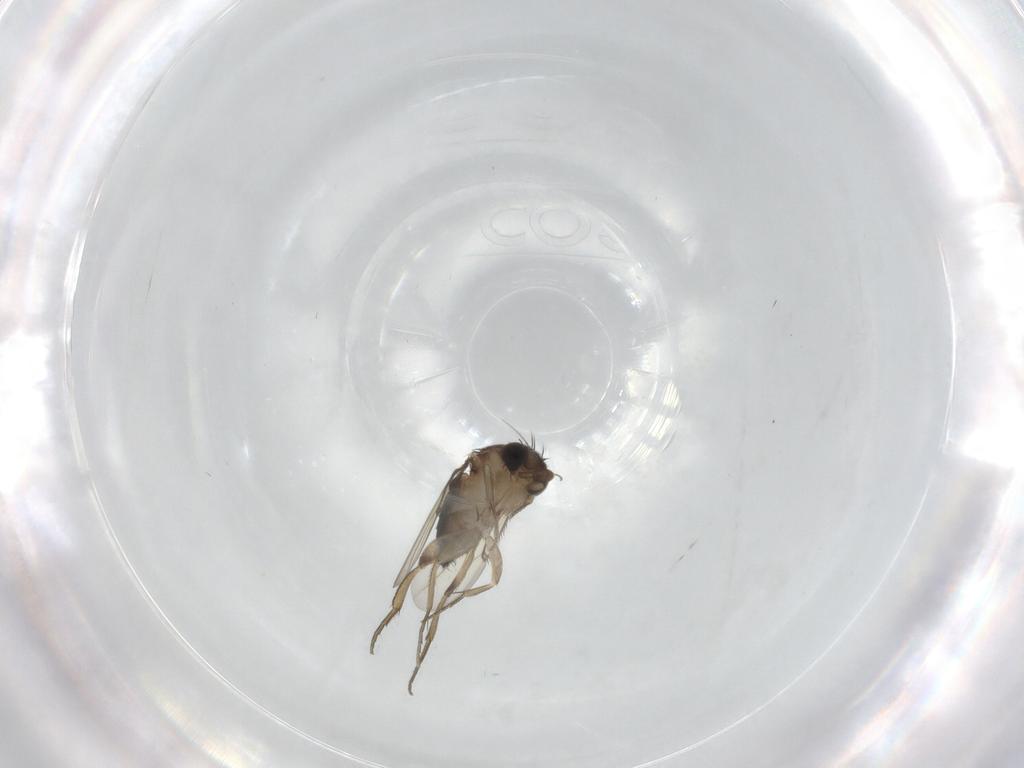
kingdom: Animalia
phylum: Arthropoda
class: Insecta
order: Diptera
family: Phoridae
